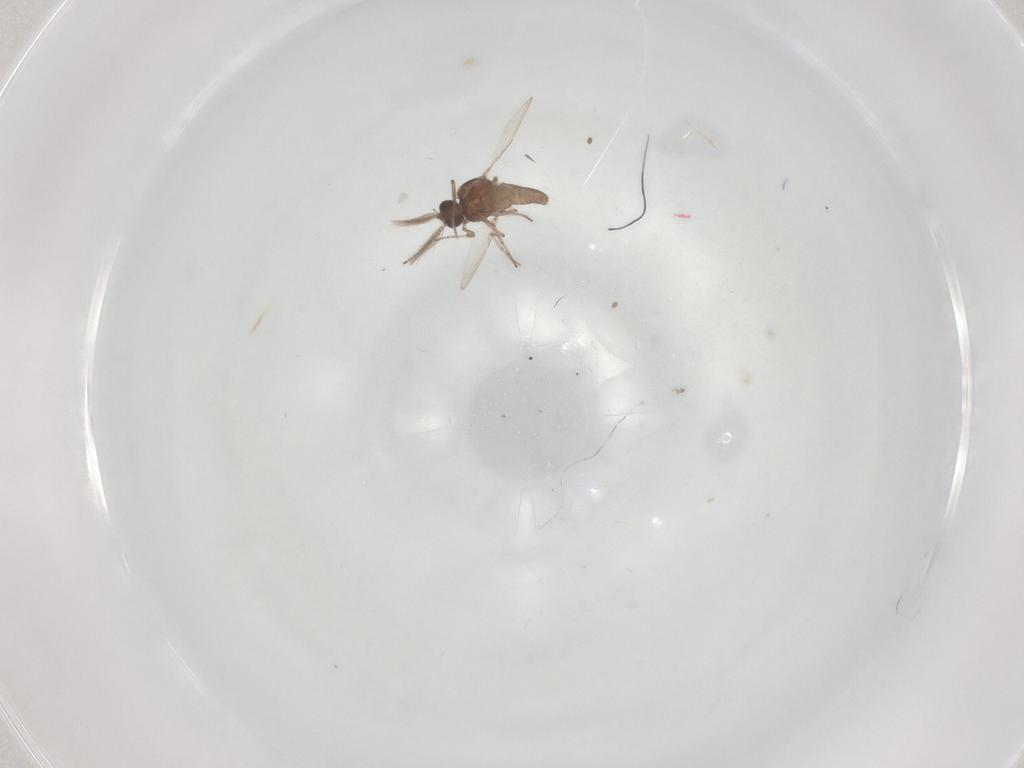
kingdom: Animalia
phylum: Arthropoda
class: Insecta
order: Diptera
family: Ceratopogonidae
